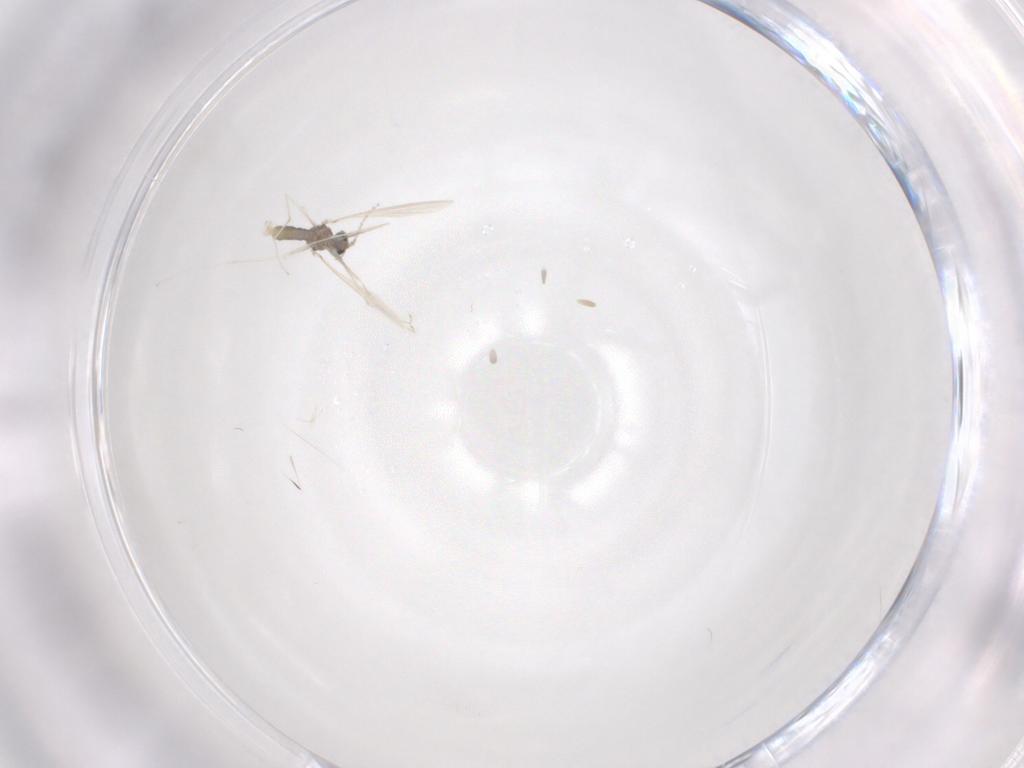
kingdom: Animalia
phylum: Arthropoda
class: Insecta
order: Diptera
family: Cecidomyiidae
